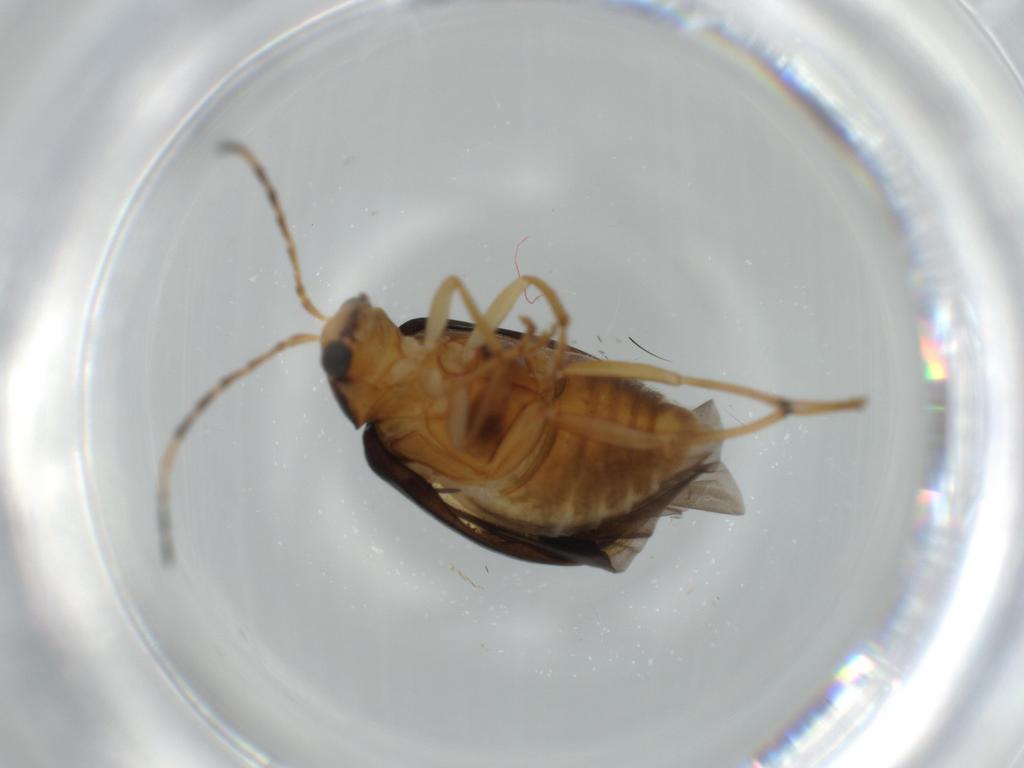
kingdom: Animalia
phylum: Arthropoda
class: Insecta
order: Coleoptera
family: Chrysomelidae
